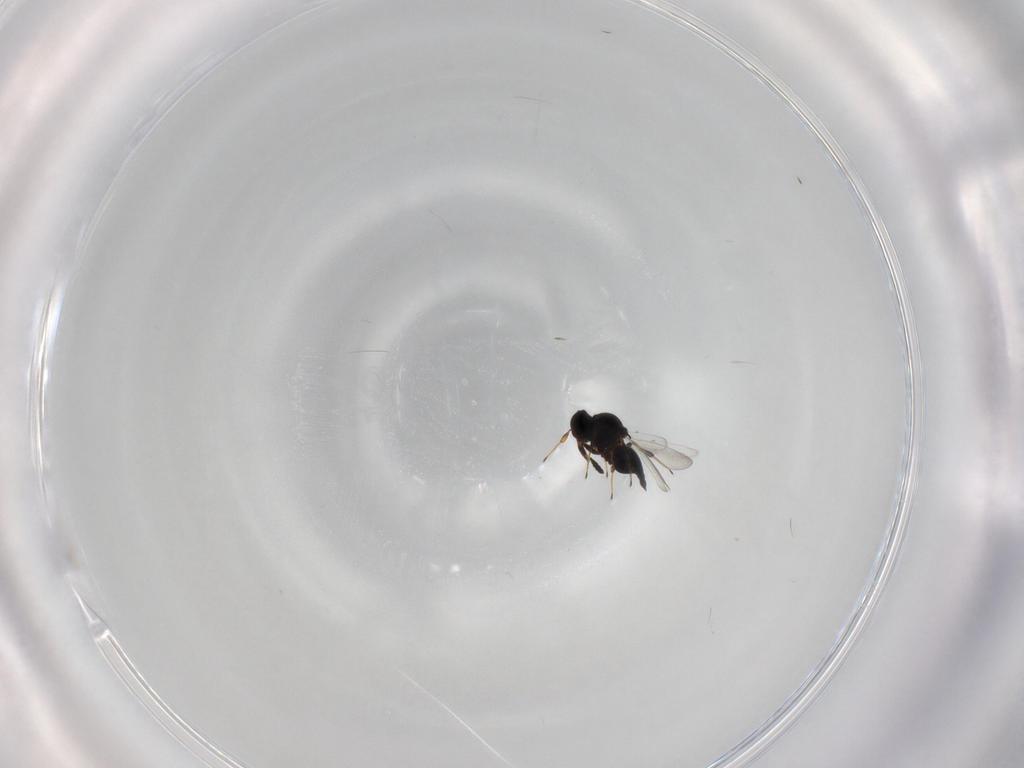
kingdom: Animalia
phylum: Arthropoda
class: Insecta
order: Hymenoptera
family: Platygastridae
